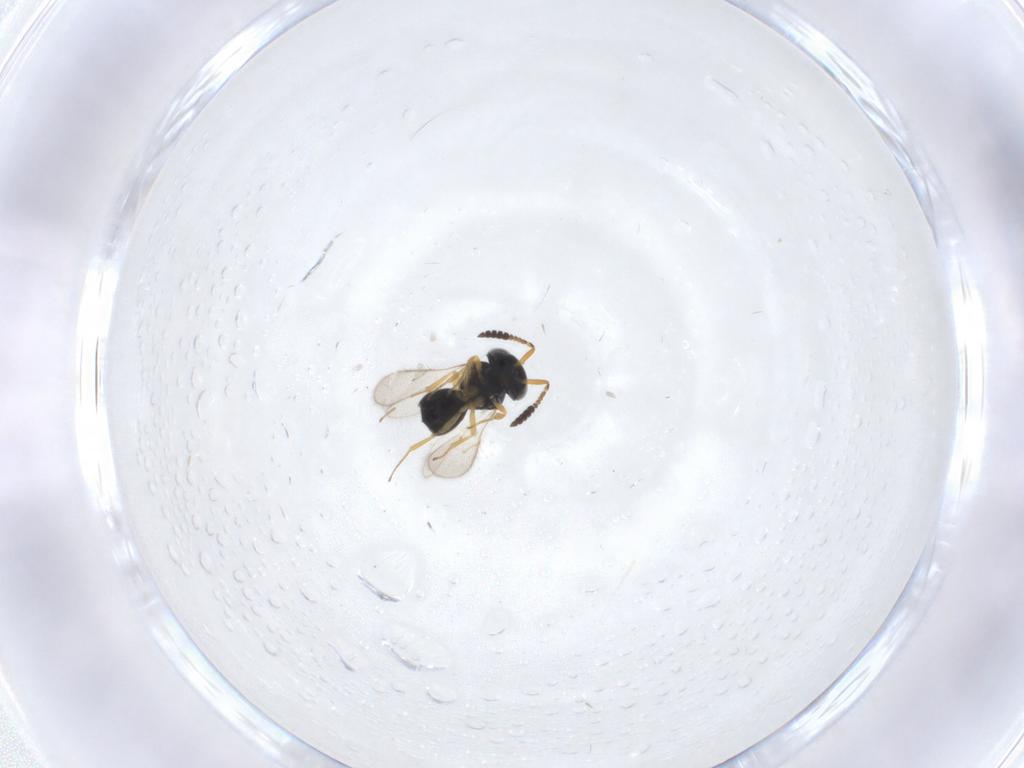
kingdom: Animalia
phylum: Arthropoda
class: Insecta
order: Hymenoptera
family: Scelionidae
